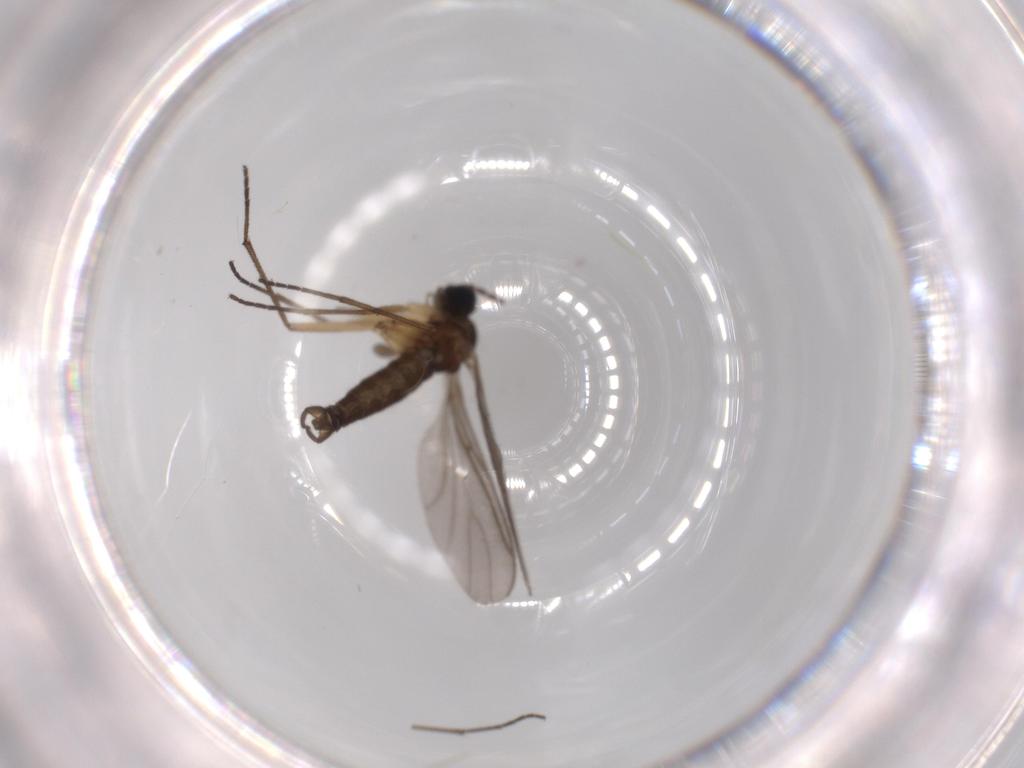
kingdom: Animalia
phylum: Arthropoda
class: Insecta
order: Diptera
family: Sciaridae
